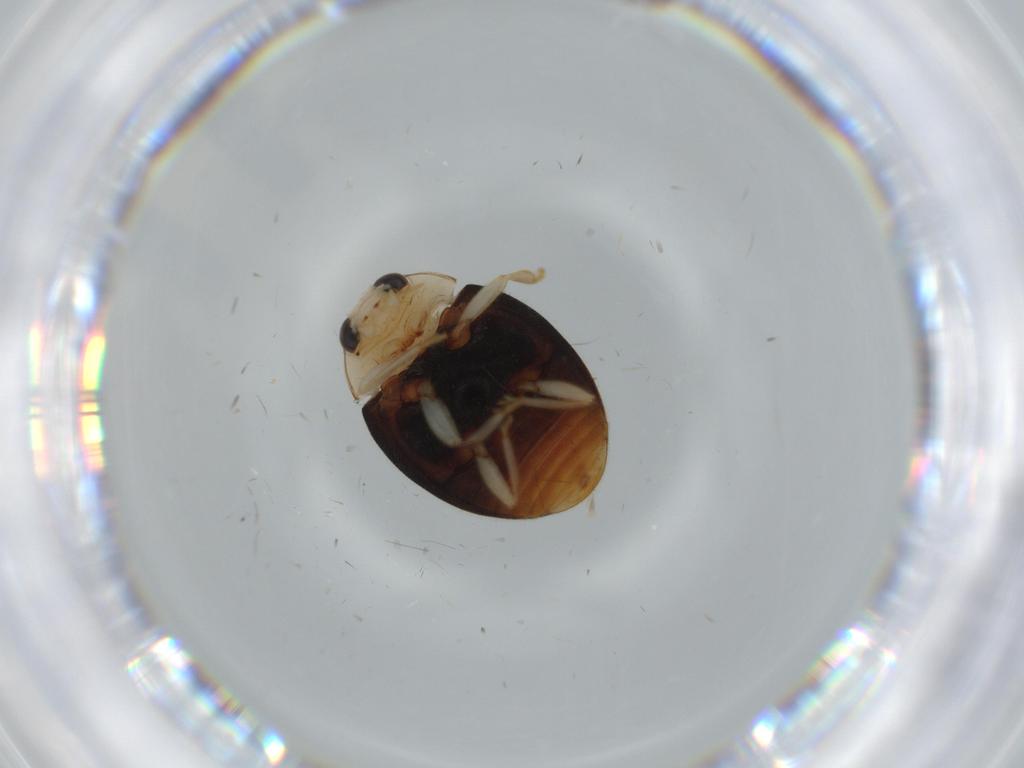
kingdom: Animalia
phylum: Arthropoda
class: Insecta
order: Coleoptera
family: Coccinellidae
